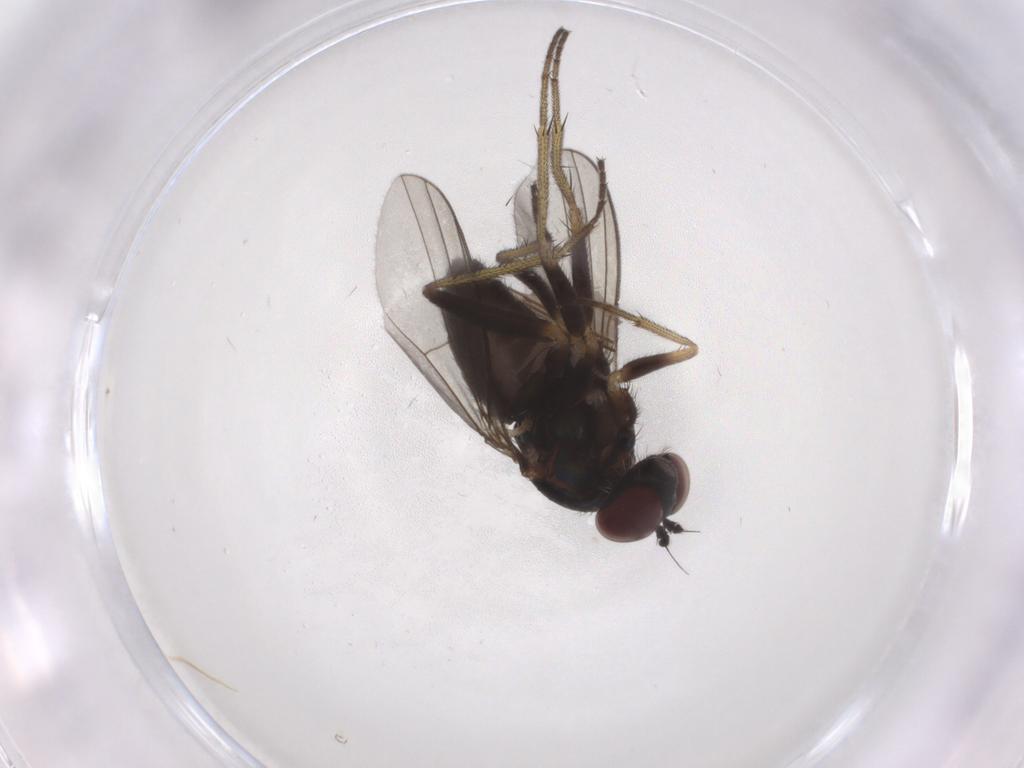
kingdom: Animalia
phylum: Arthropoda
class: Insecta
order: Diptera
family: Dolichopodidae
